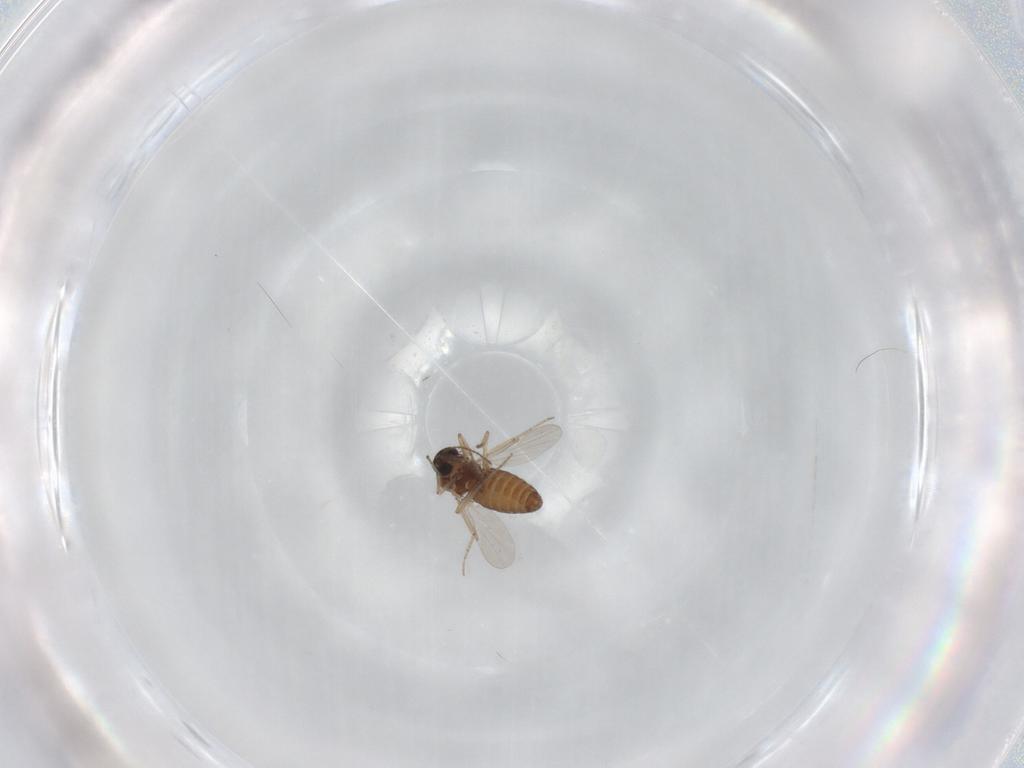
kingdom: Animalia
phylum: Arthropoda
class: Insecta
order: Diptera
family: Ceratopogonidae
